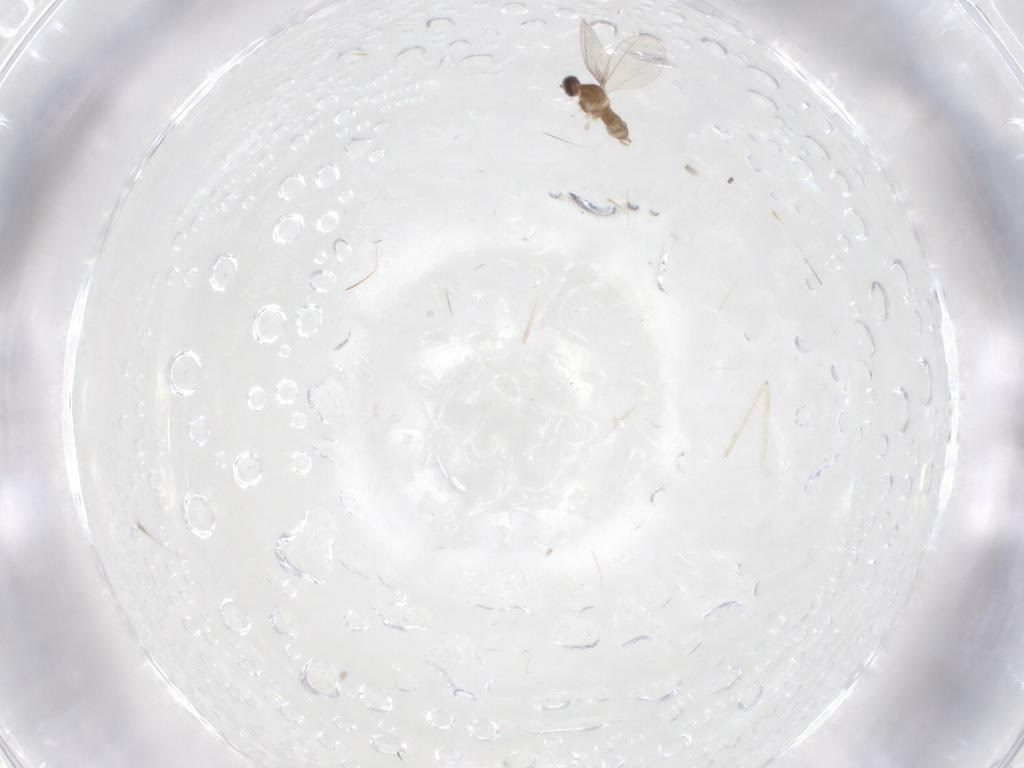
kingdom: Animalia
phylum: Arthropoda
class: Insecta
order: Diptera
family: Cecidomyiidae
